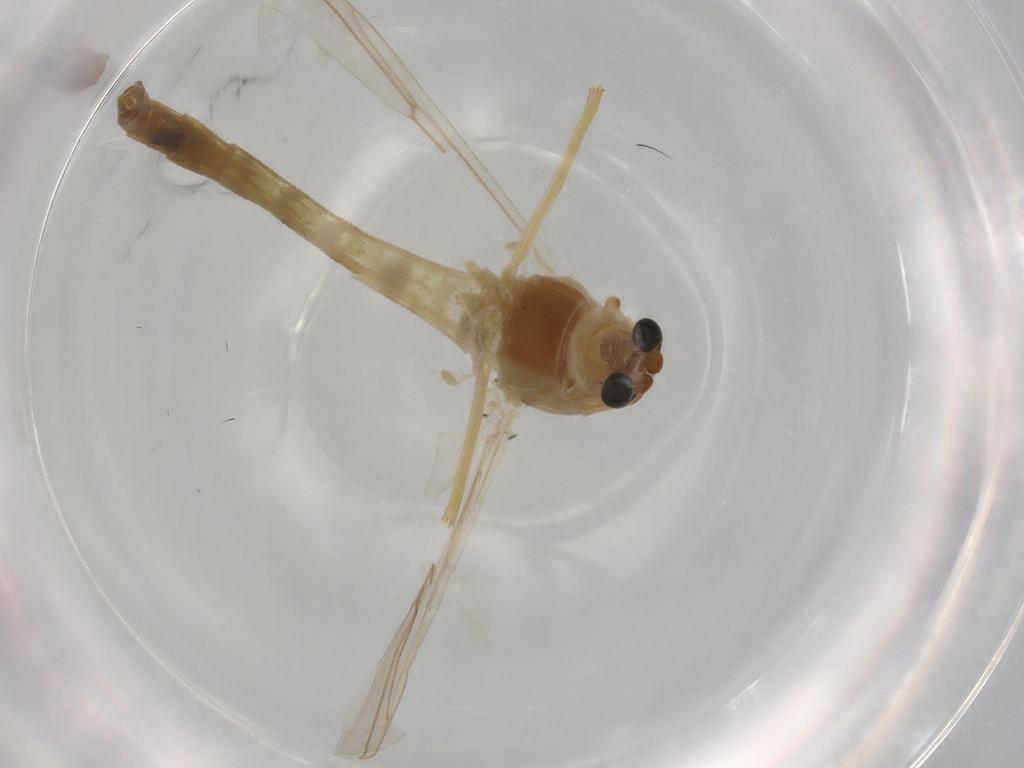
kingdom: Animalia
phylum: Arthropoda
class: Insecta
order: Diptera
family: Chironomidae
